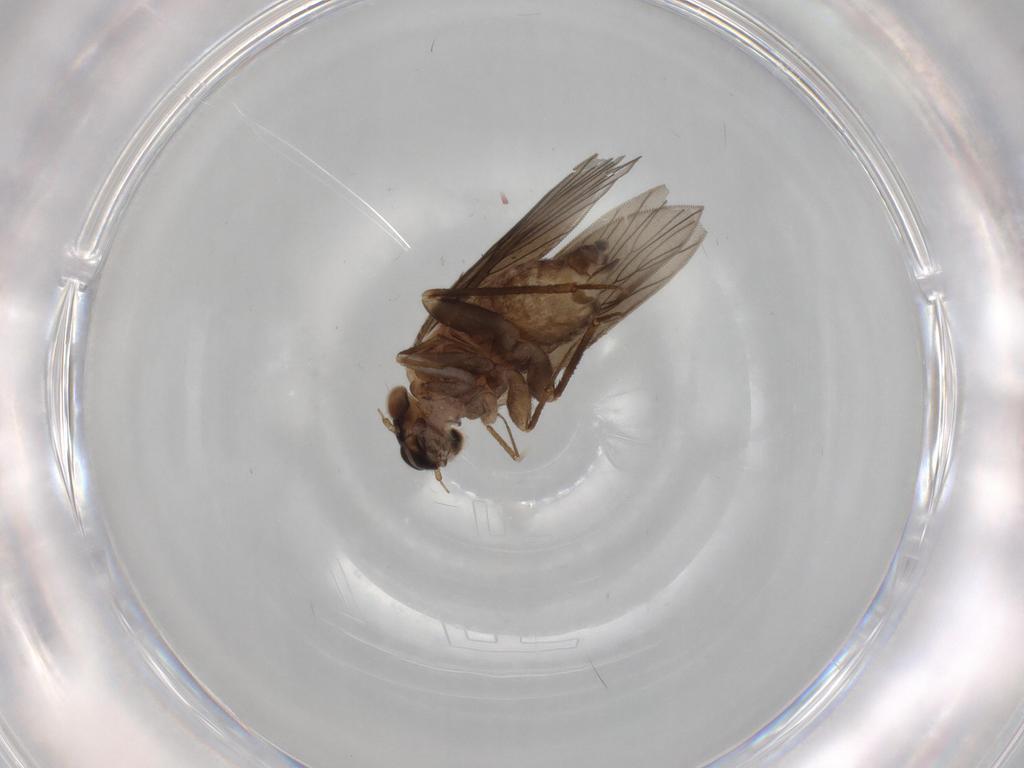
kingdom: Animalia
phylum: Arthropoda
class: Insecta
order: Psocodea
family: Lepidopsocidae
